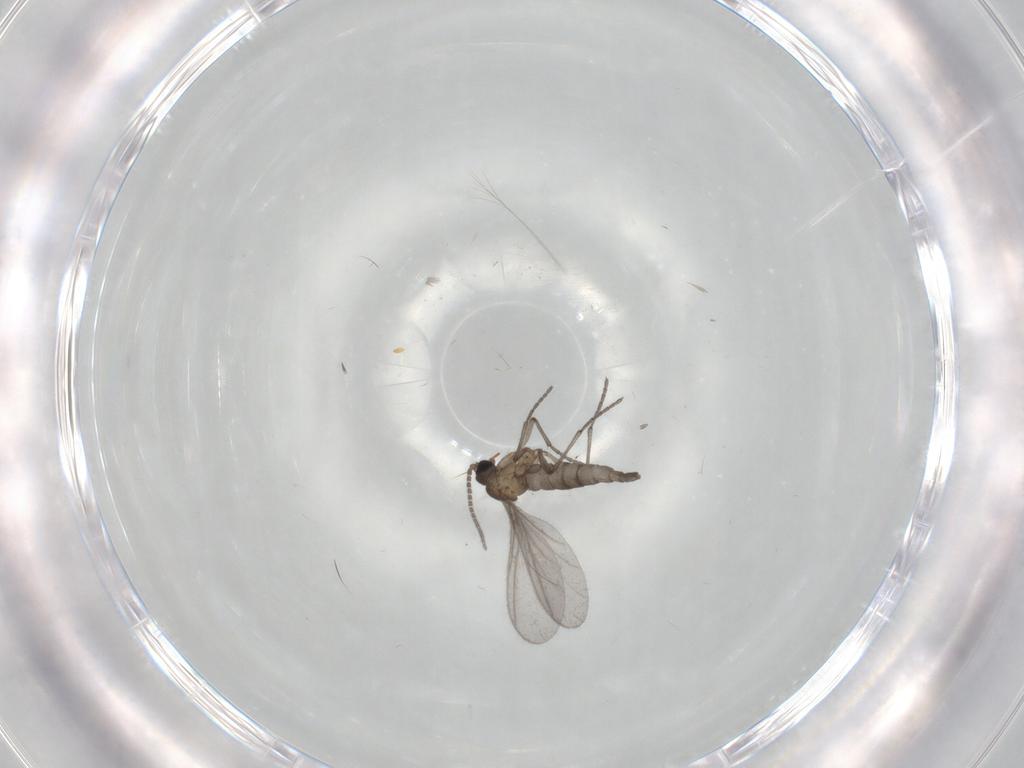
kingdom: Animalia
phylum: Arthropoda
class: Insecta
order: Diptera
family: Sciaridae
